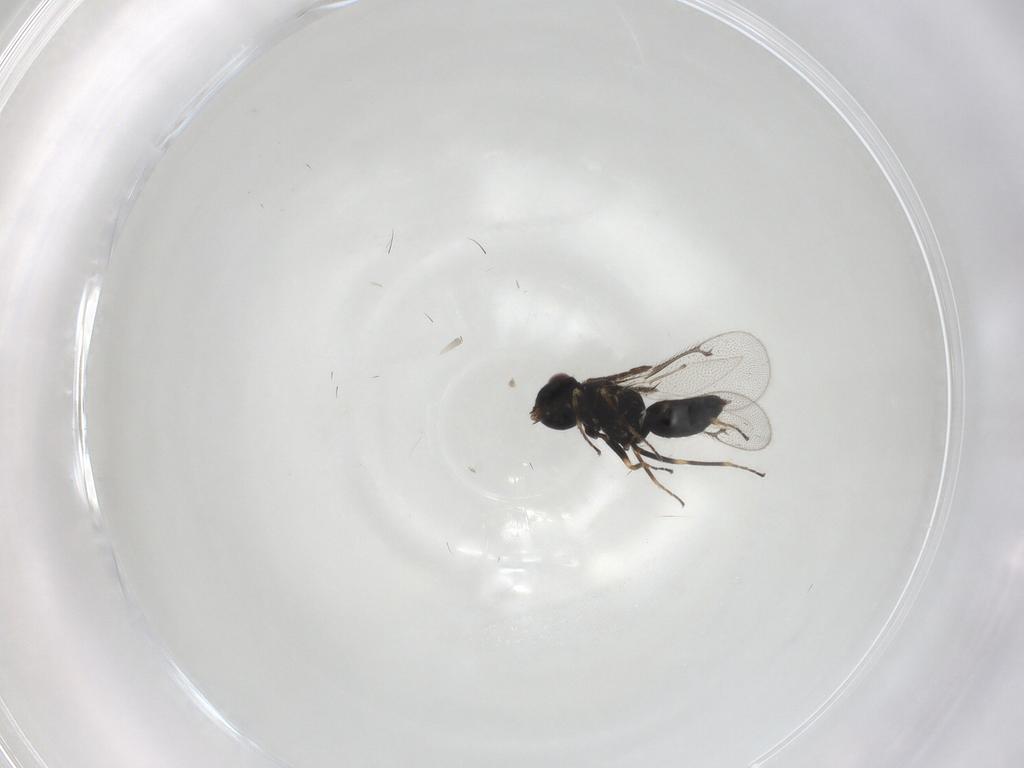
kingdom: Animalia
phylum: Arthropoda
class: Insecta
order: Hymenoptera
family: Eulophidae
